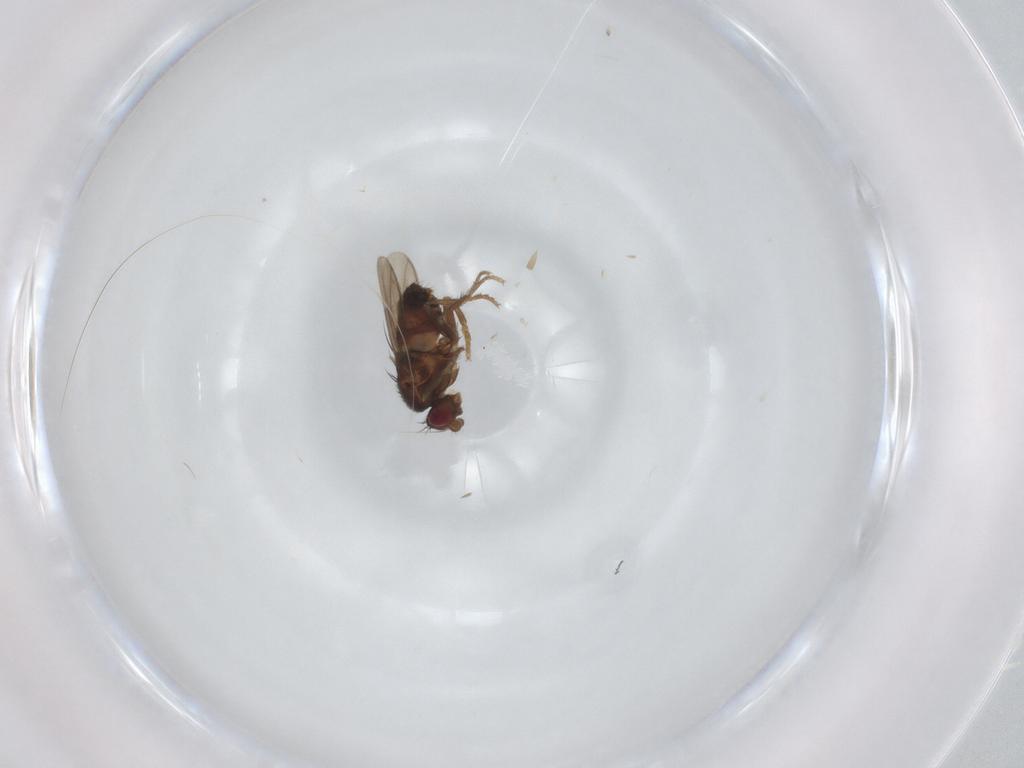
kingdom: Animalia
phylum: Arthropoda
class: Insecta
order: Diptera
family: Sphaeroceridae
